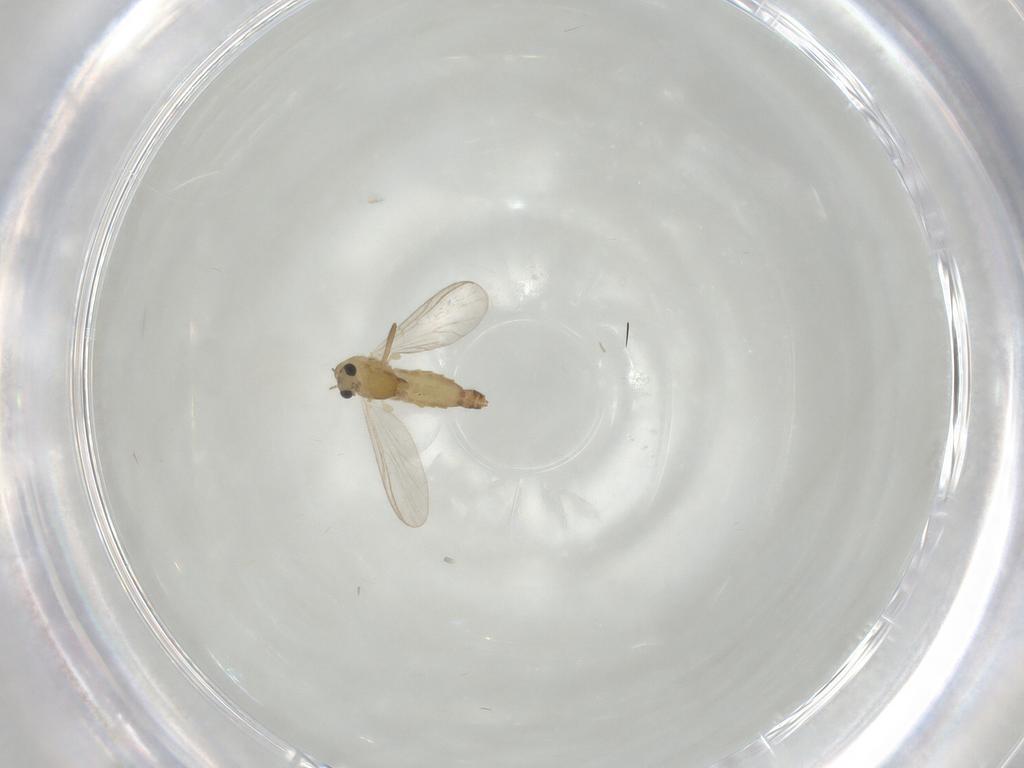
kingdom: Animalia
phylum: Arthropoda
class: Insecta
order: Diptera
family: Chironomidae
